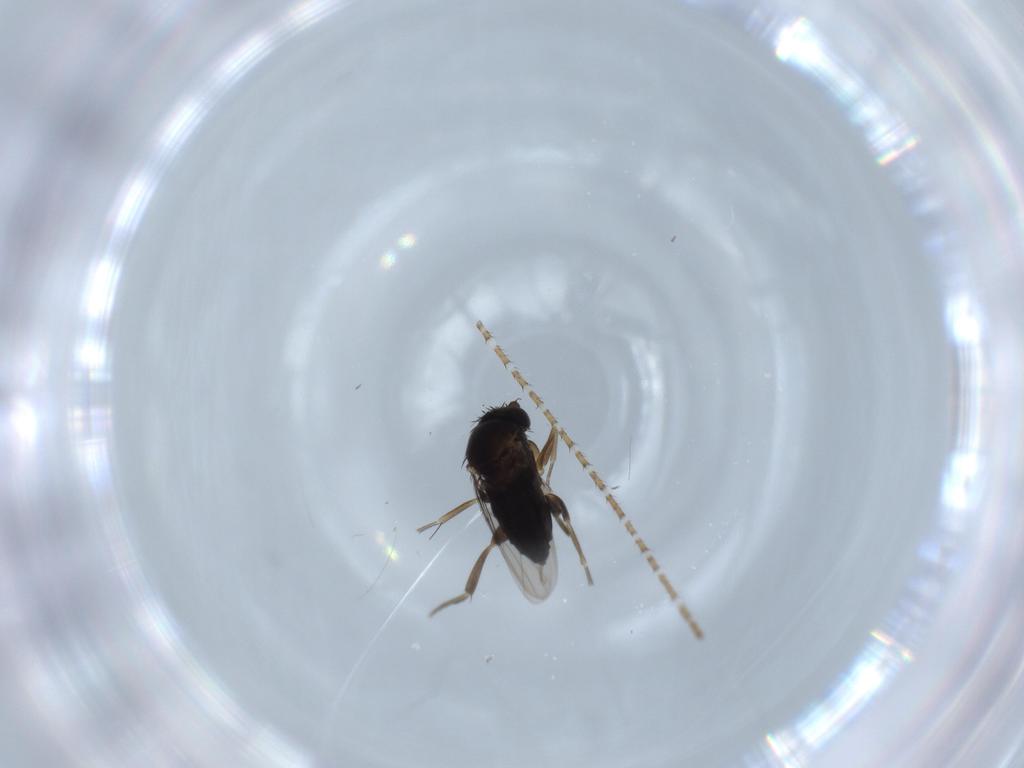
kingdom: Animalia
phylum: Arthropoda
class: Insecta
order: Diptera
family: Phoridae
